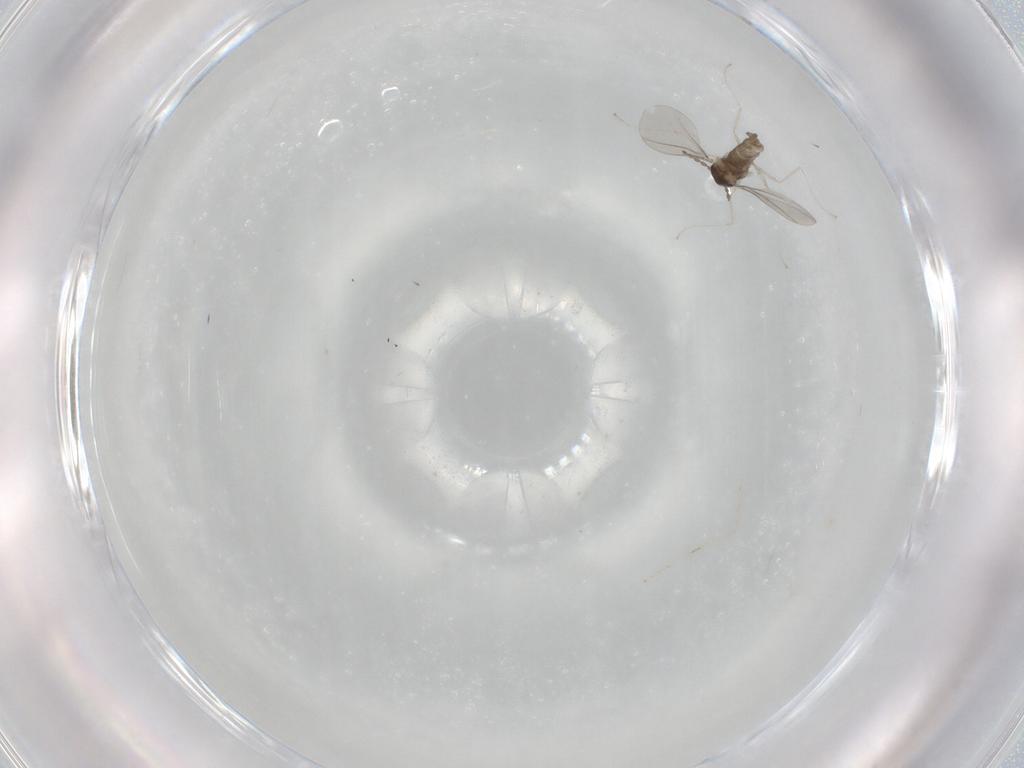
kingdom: Animalia
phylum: Arthropoda
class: Insecta
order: Diptera
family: Cecidomyiidae
